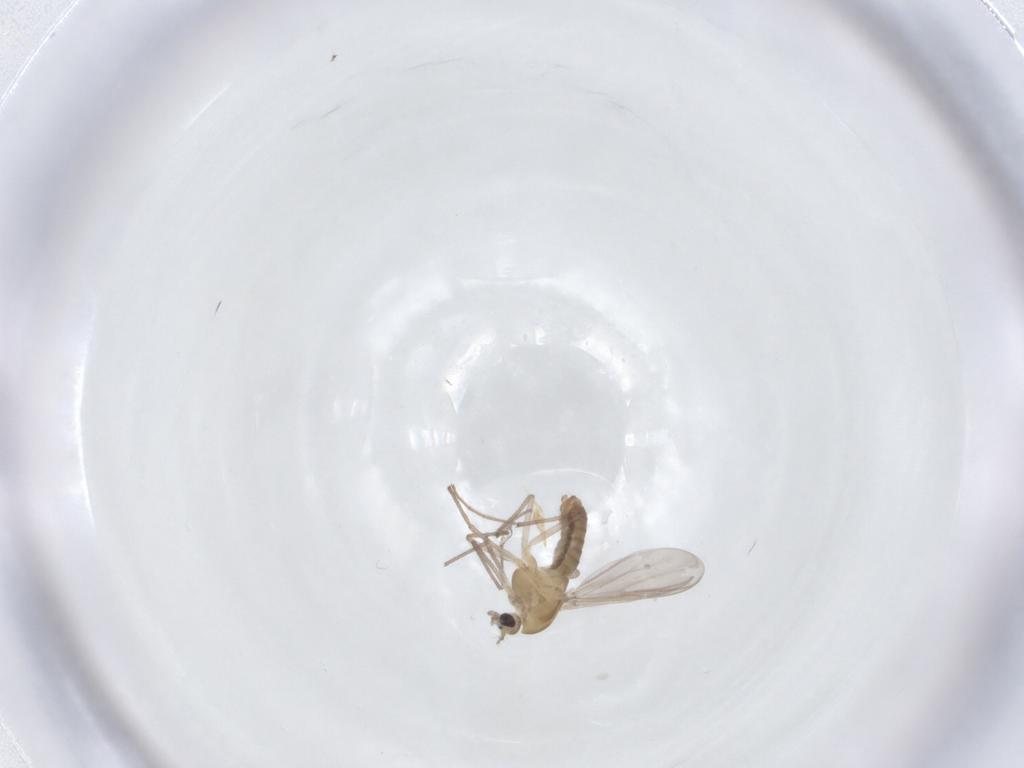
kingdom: Animalia
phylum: Arthropoda
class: Insecta
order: Diptera
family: Chironomidae
